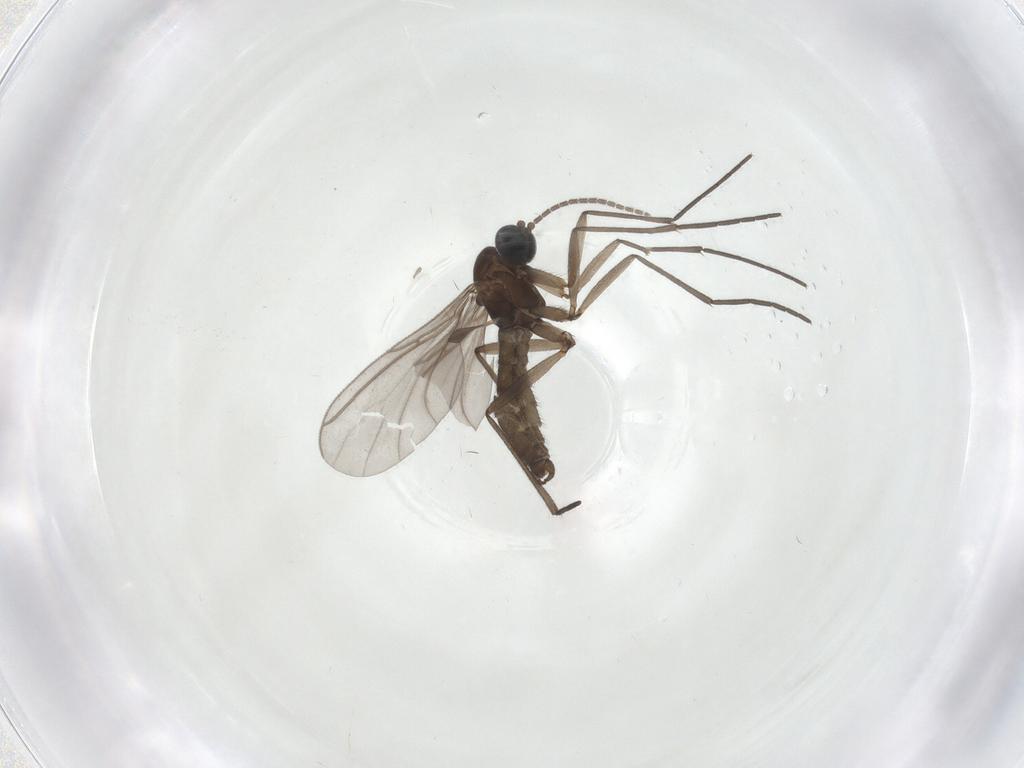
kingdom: Animalia
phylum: Arthropoda
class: Insecta
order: Diptera
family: Sciaridae
